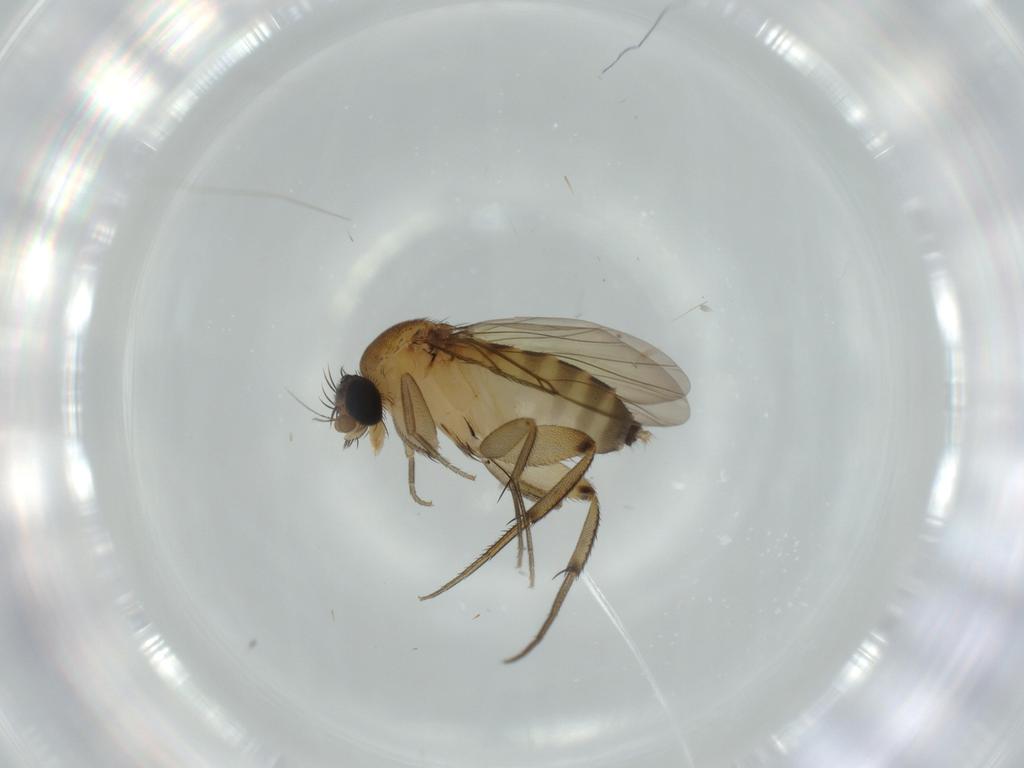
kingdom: Animalia
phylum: Arthropoda
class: Insecta
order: Diptera
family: Phoridae
